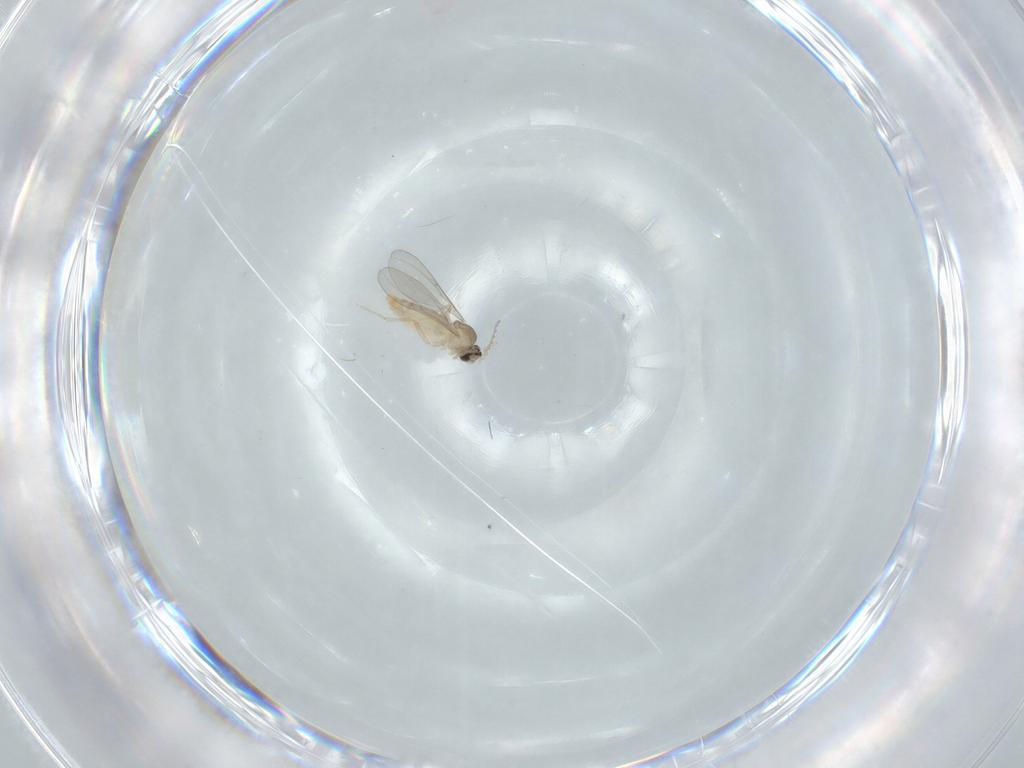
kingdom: Animalia
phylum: Arthropoda
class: Insecta
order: Diptera
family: Cecidomyiidae
